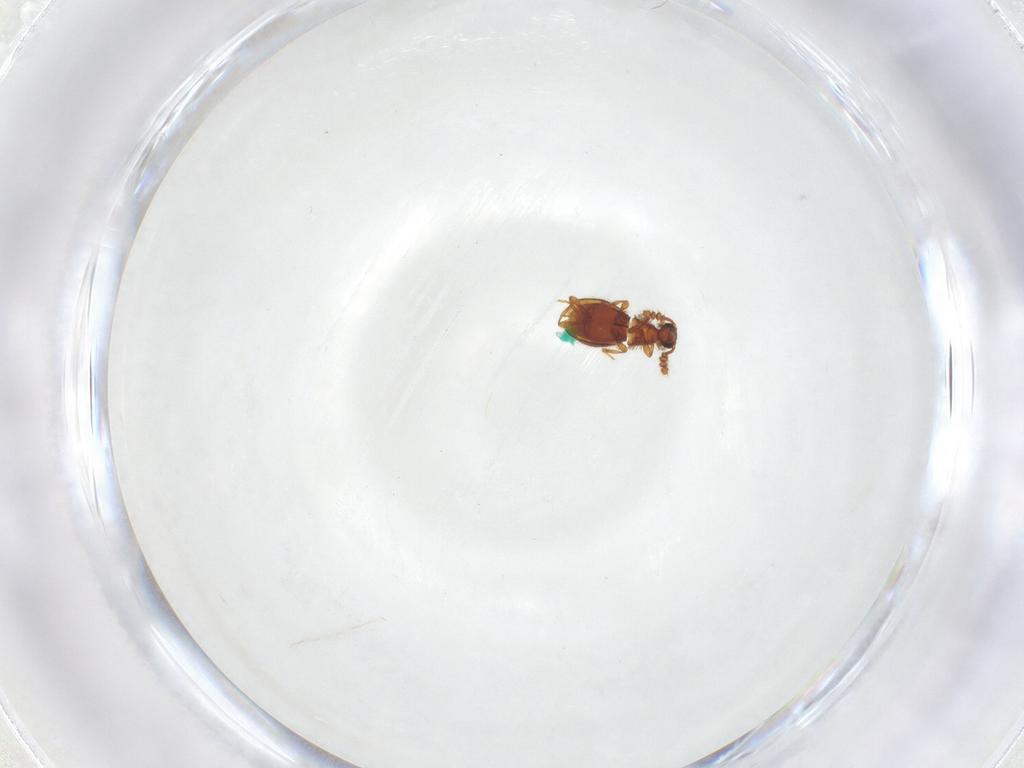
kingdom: Animalia
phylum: Arthropoda
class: Insecta
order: Coleoptera
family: Staphylinidae
